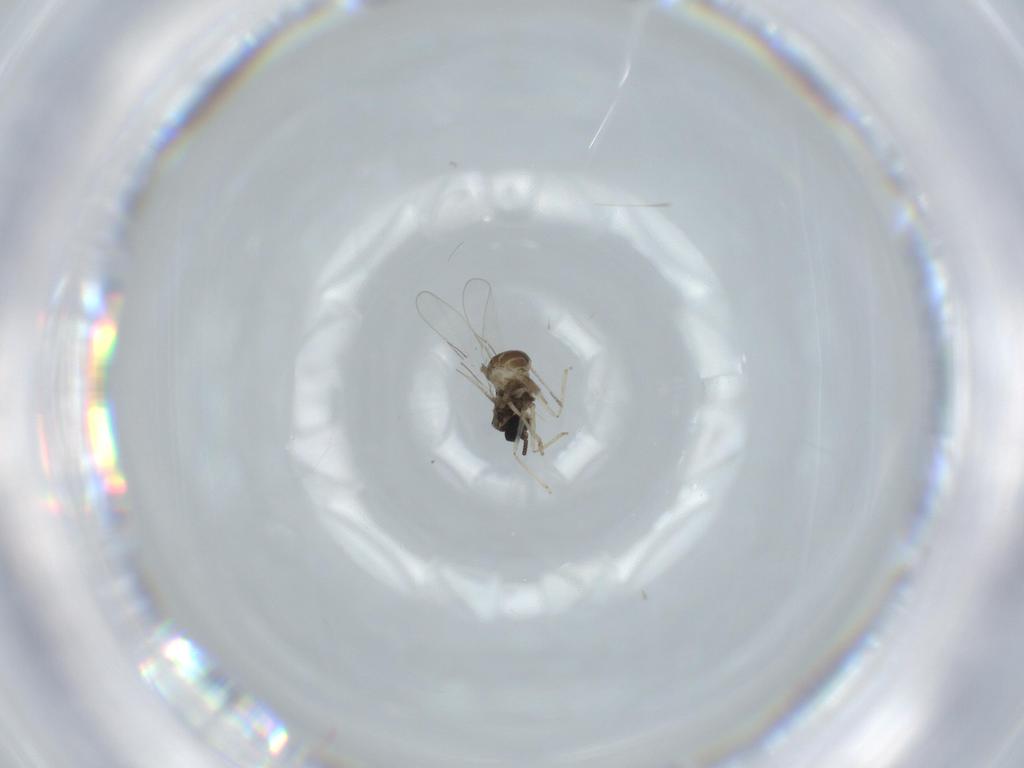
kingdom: Animalia
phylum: Arthropoda
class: Insecta
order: Diptera
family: Cecidomyiidae
